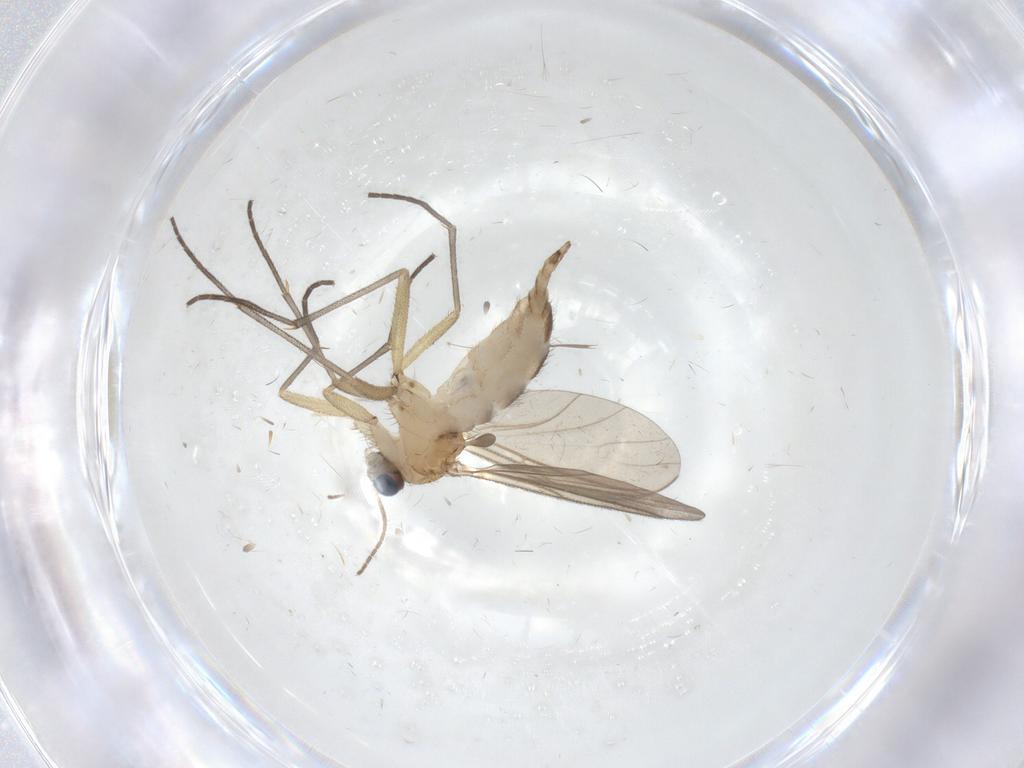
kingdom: Animalia
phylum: Arthropoda
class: Insecta
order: Diptera
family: Sciaridae
